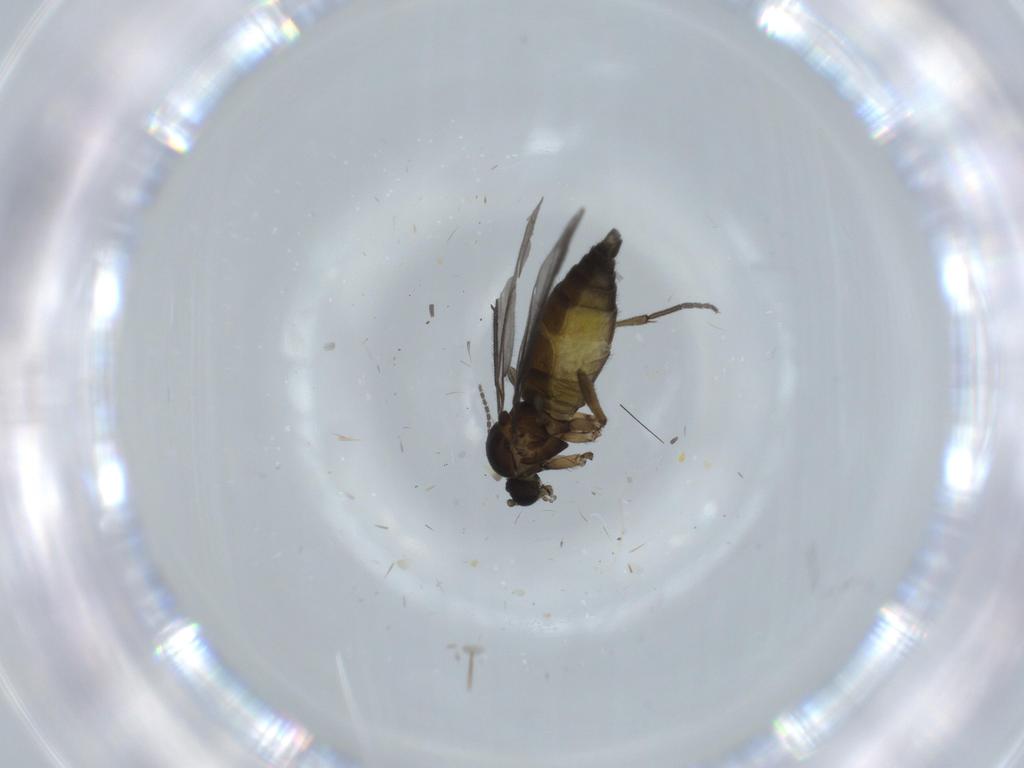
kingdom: Animalia
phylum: Arthropoda
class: Insecta
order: Diptera
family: Sciaridae
